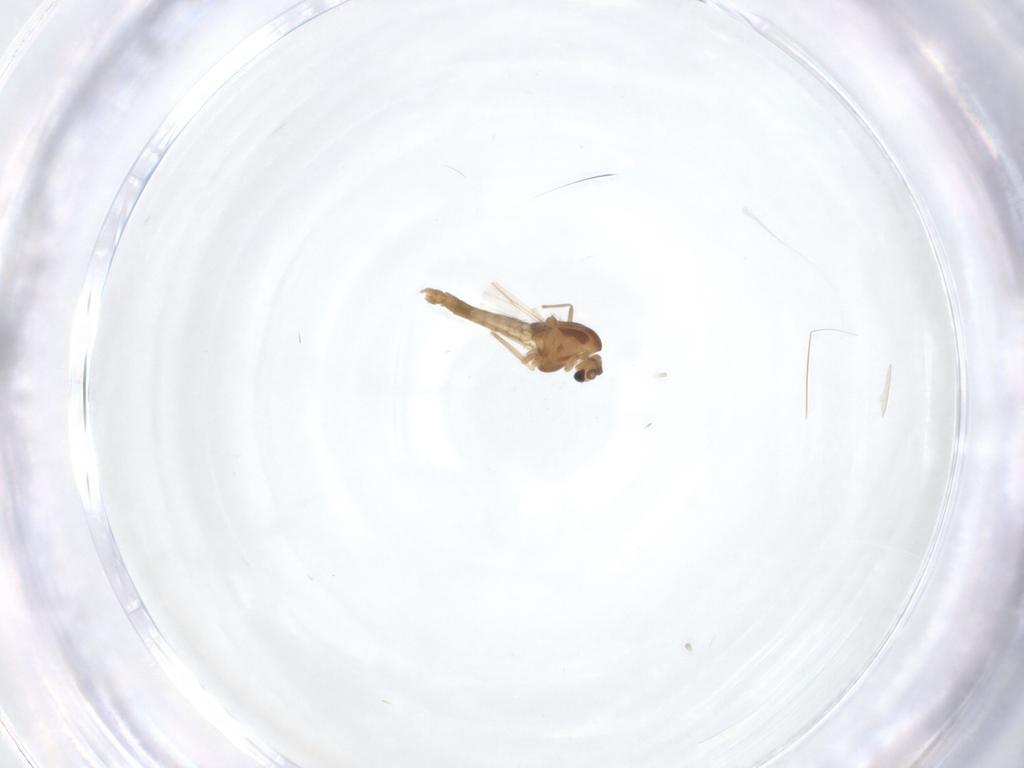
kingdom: Animalia
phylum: Arthropoda
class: Insecta
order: Diptera
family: Chironomidae
